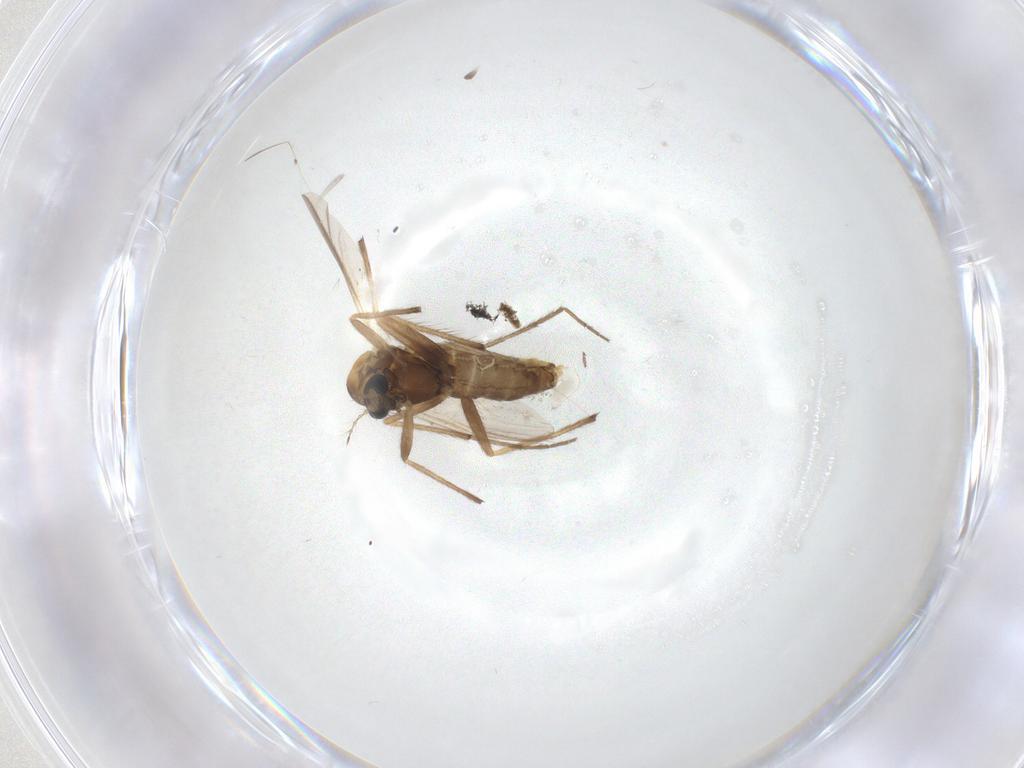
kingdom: Animalia
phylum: Arthropoda
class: Insecta
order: Diptera
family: Chironomidae
